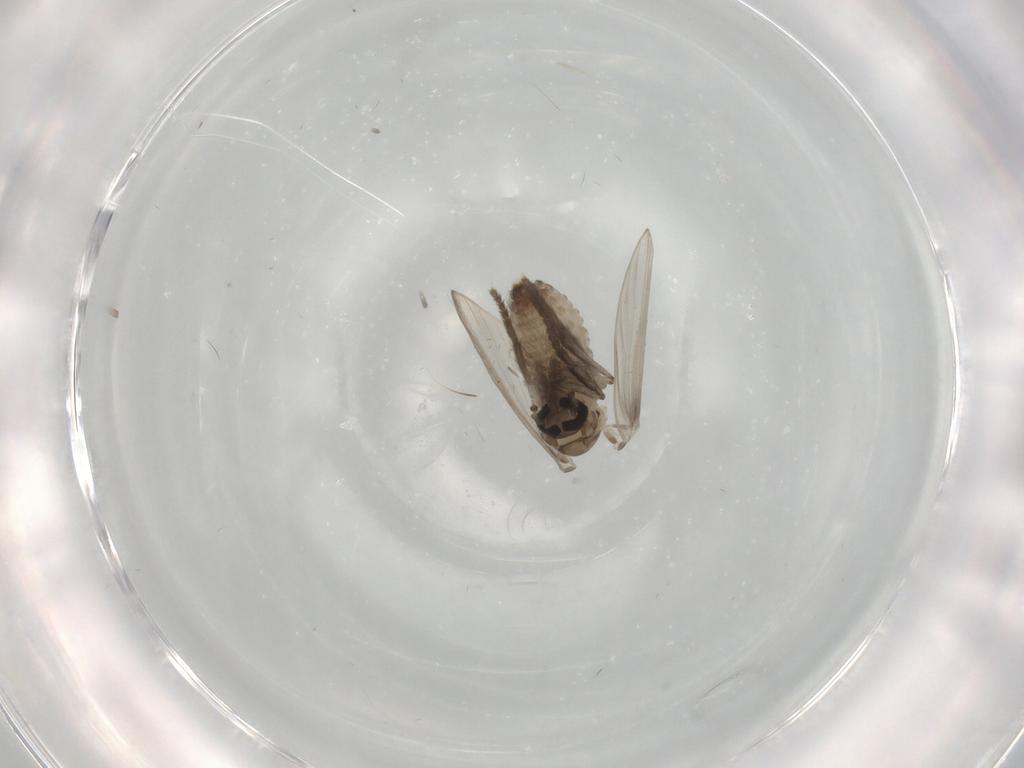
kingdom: Animalia
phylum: Arthropoda
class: Insecta
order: Diptera
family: Psychodidae
